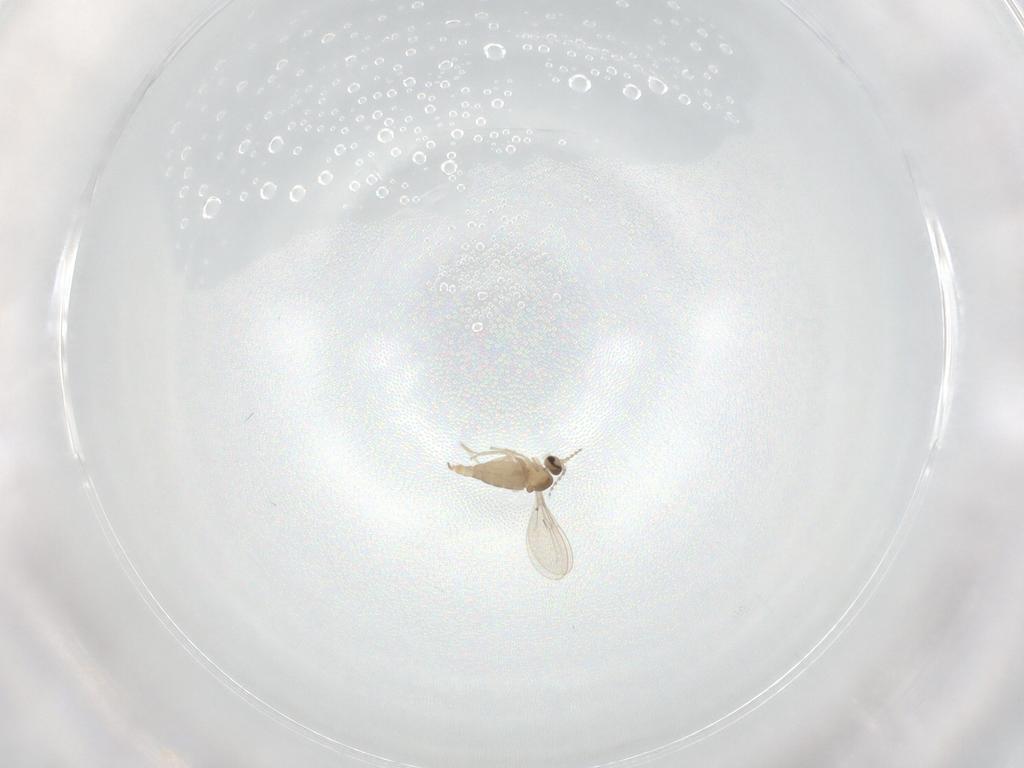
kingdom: Animalia
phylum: Arthropoda
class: Insecta
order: Diptera
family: Cecidomyiidae
